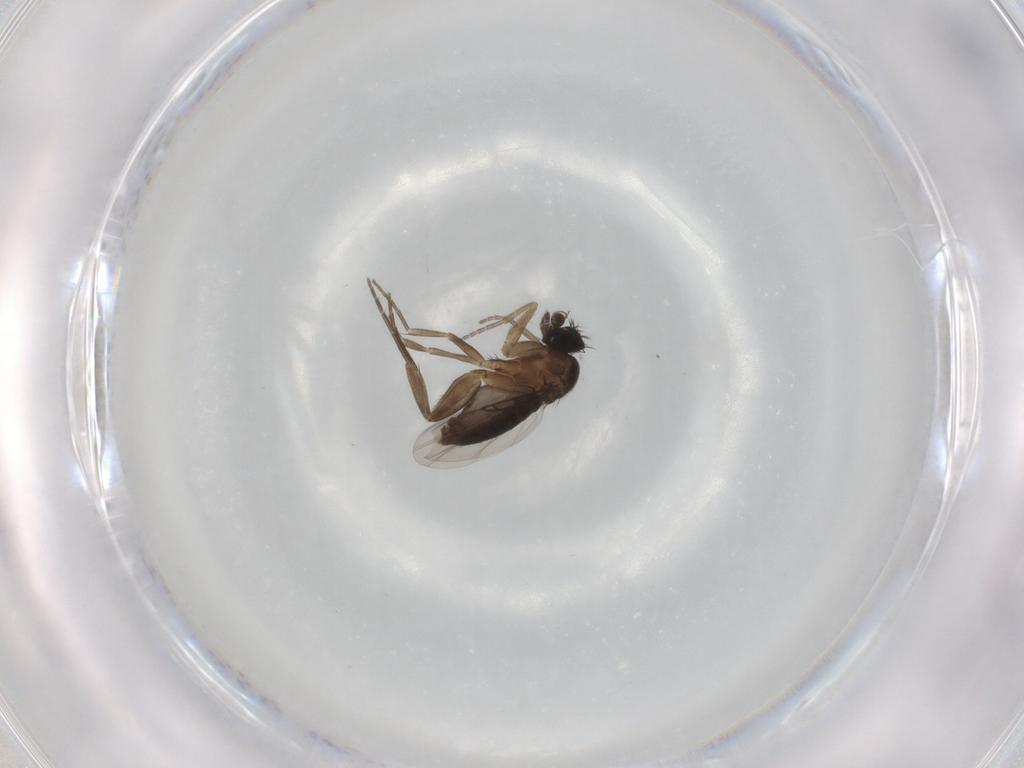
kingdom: Animalia
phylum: Arthropoda
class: Insecta
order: Diptera
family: Phoridae
